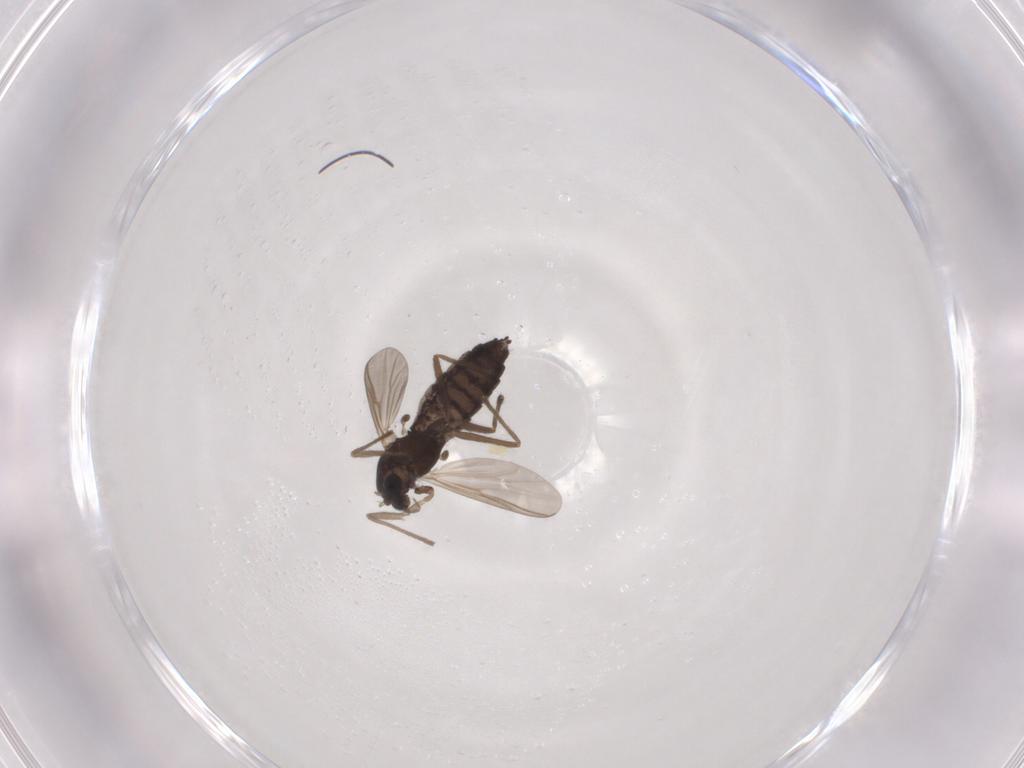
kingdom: Animalia
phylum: Arthropoda
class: Insecta
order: Diptera
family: Chironomidae
